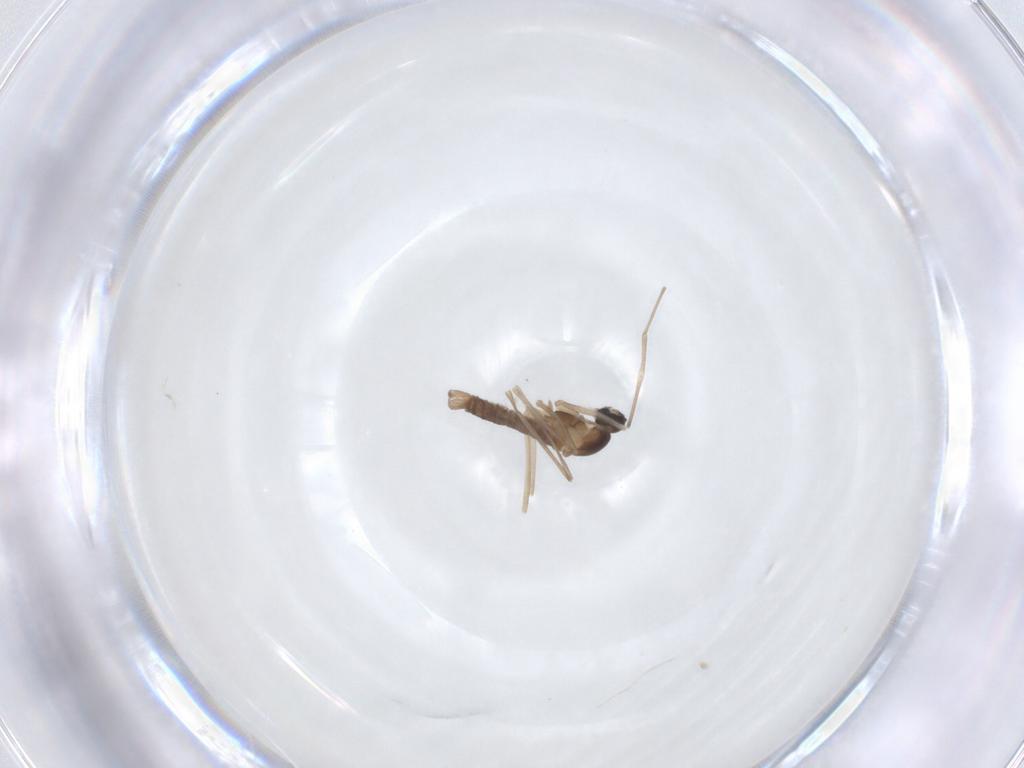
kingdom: Animalia
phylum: Arthropoda
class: Insecta
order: Diptera
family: Cecidomyiidae
